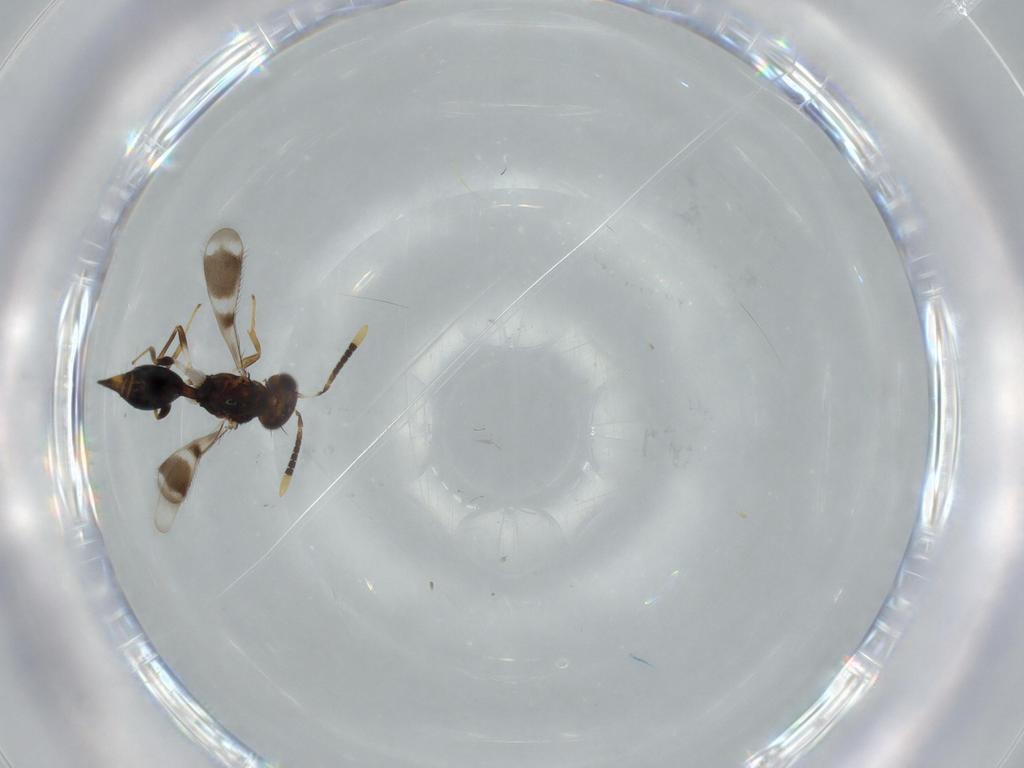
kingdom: Animalia
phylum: Arthropoda
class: Insecta
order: Hymenoptera
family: Diparidae
